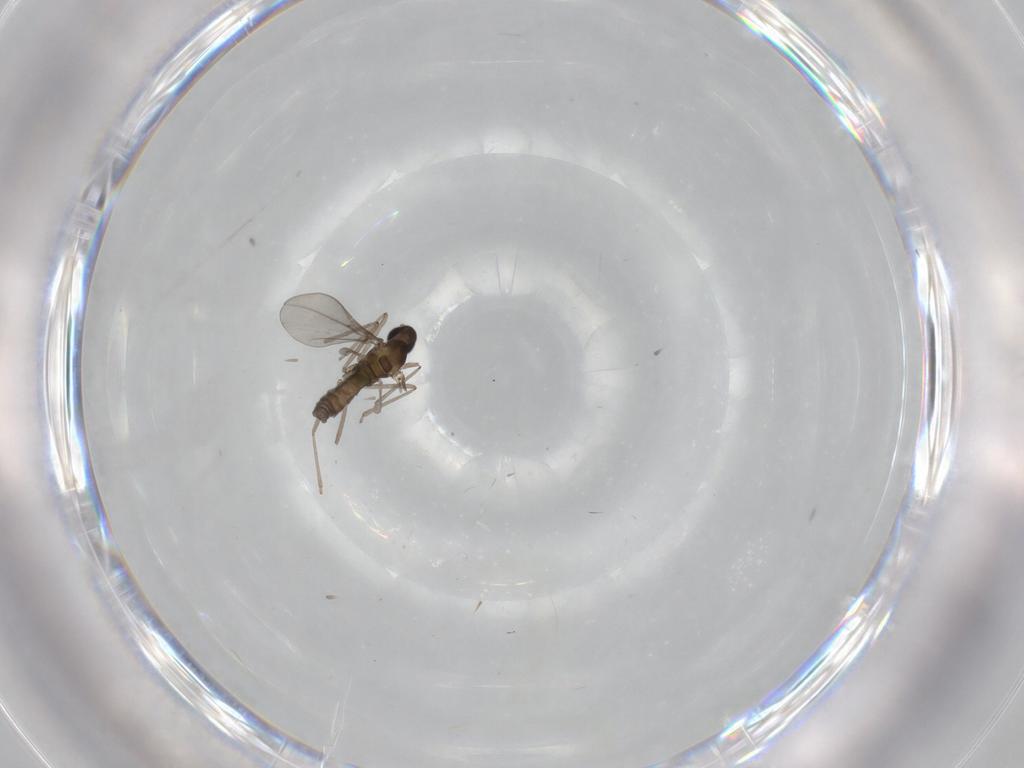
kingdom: Animalia
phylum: Arthropoda
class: Insecta
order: Diptera
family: Cecidomyiidae
